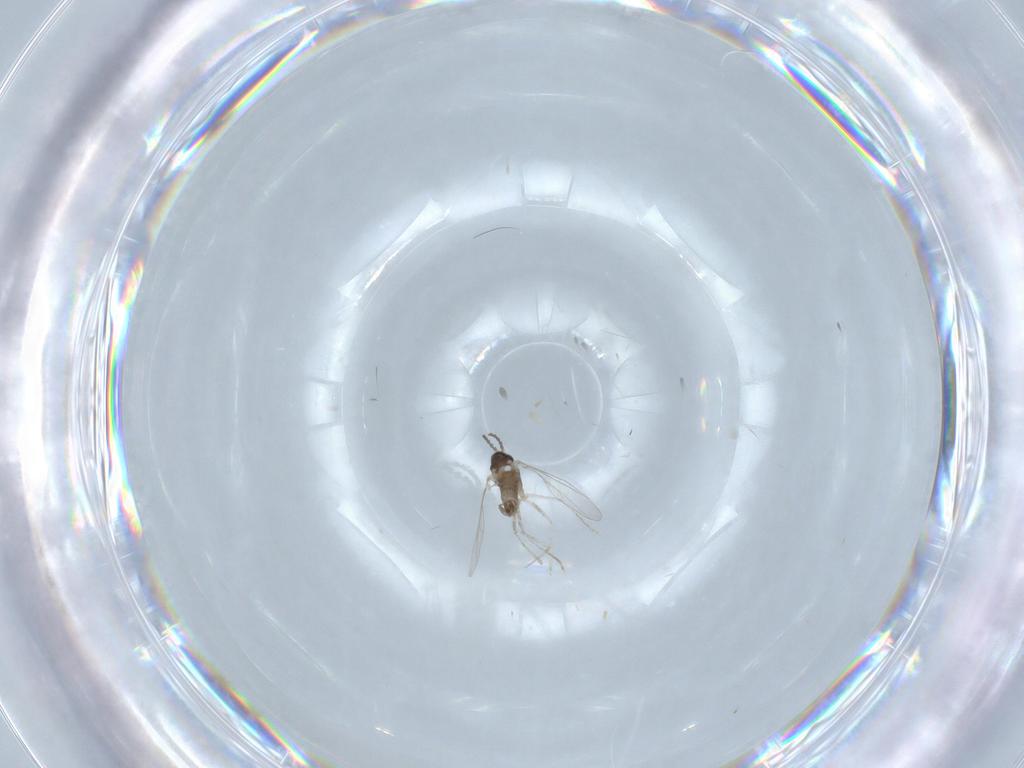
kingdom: Animalia
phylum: Arthropoda
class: Insecta
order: Diptera
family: Cecidomyiidae
